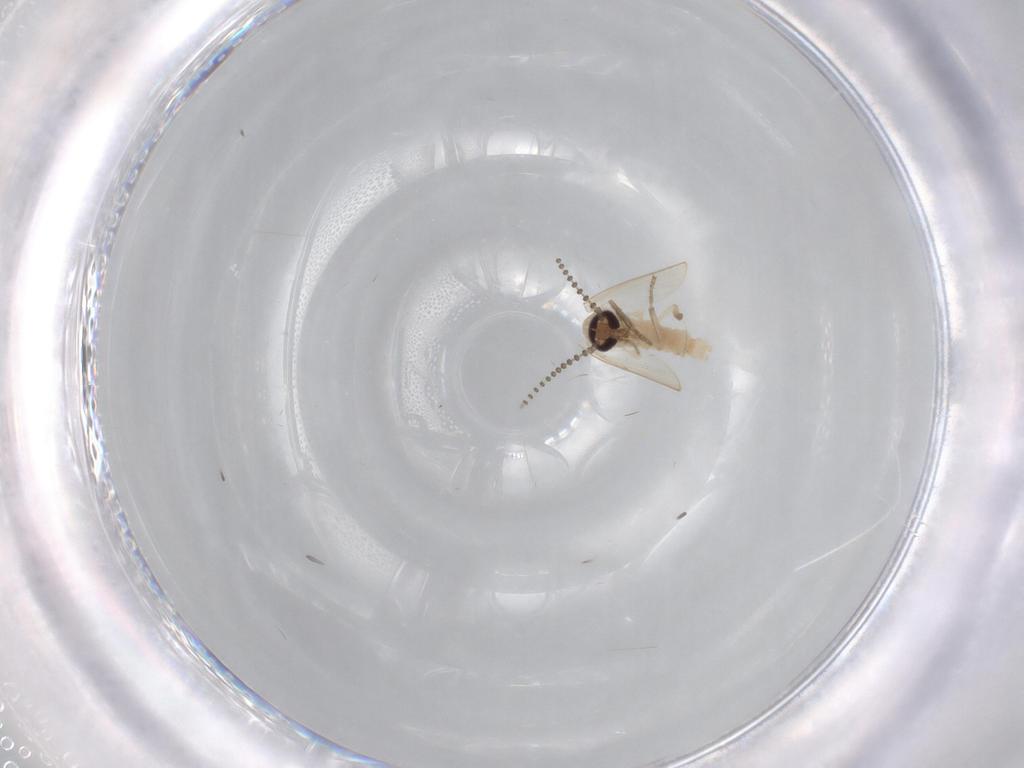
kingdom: Animalia
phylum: Arthropoda
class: Insecta
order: Diptera
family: Psychodidae
